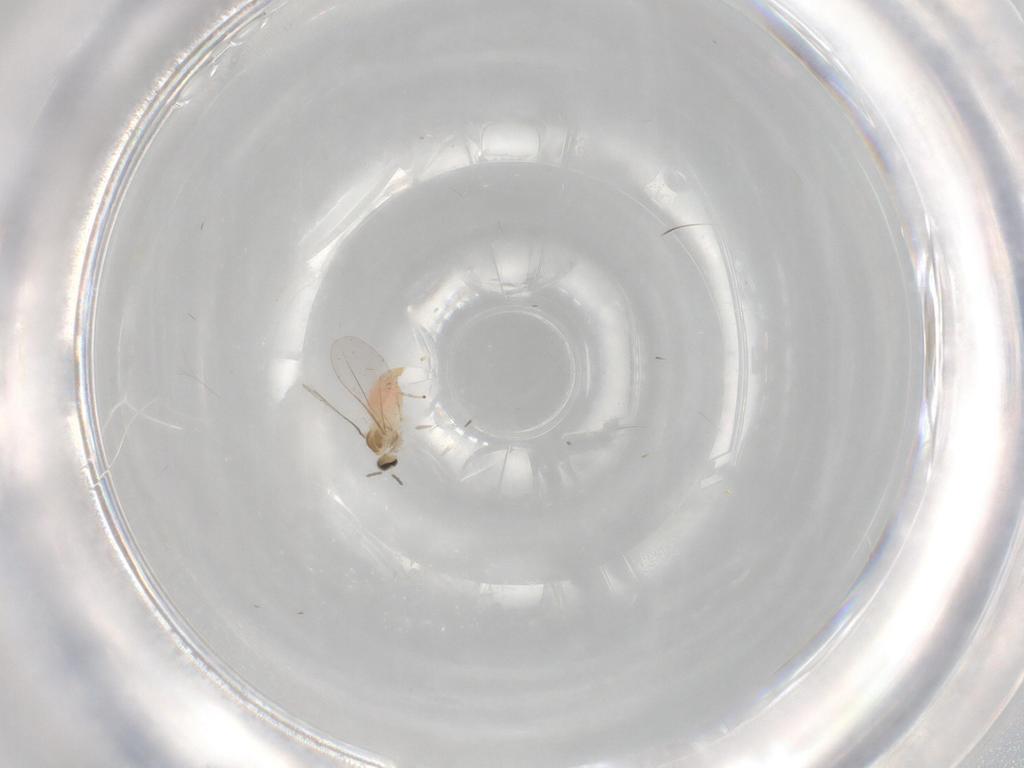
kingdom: Animalia
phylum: Arthropoda
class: Insecta
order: Diptera
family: Cecidomyiidae
